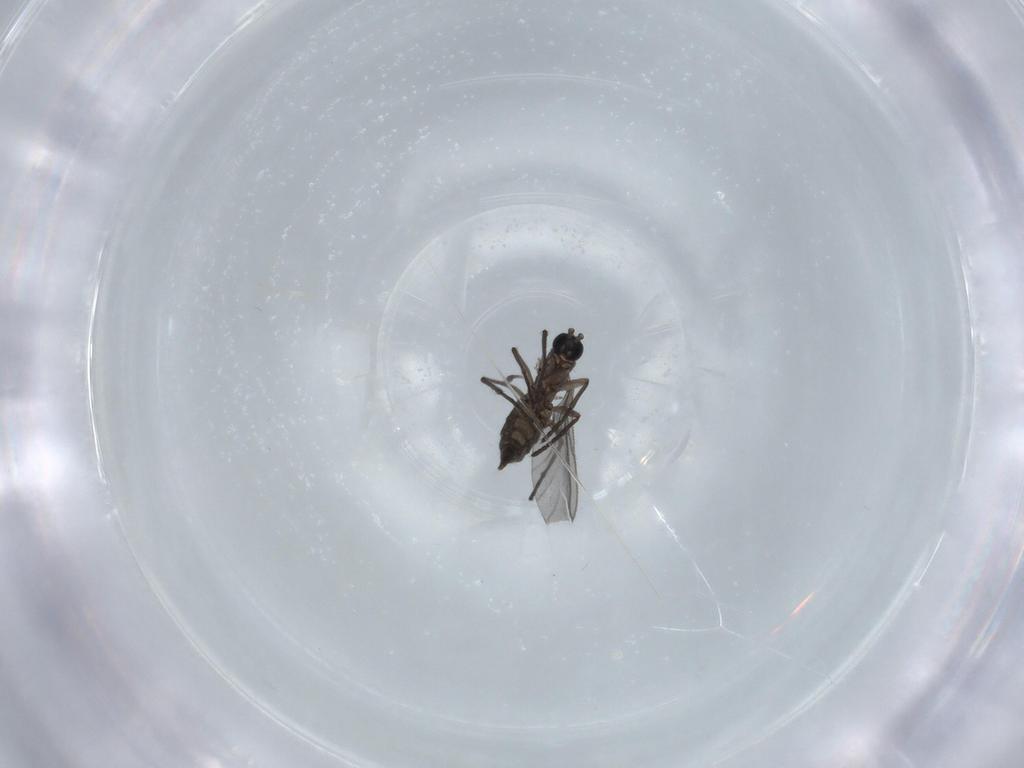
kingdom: Animalia
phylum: Arthropoda
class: Insecta
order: Diptera
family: Sciaridae
